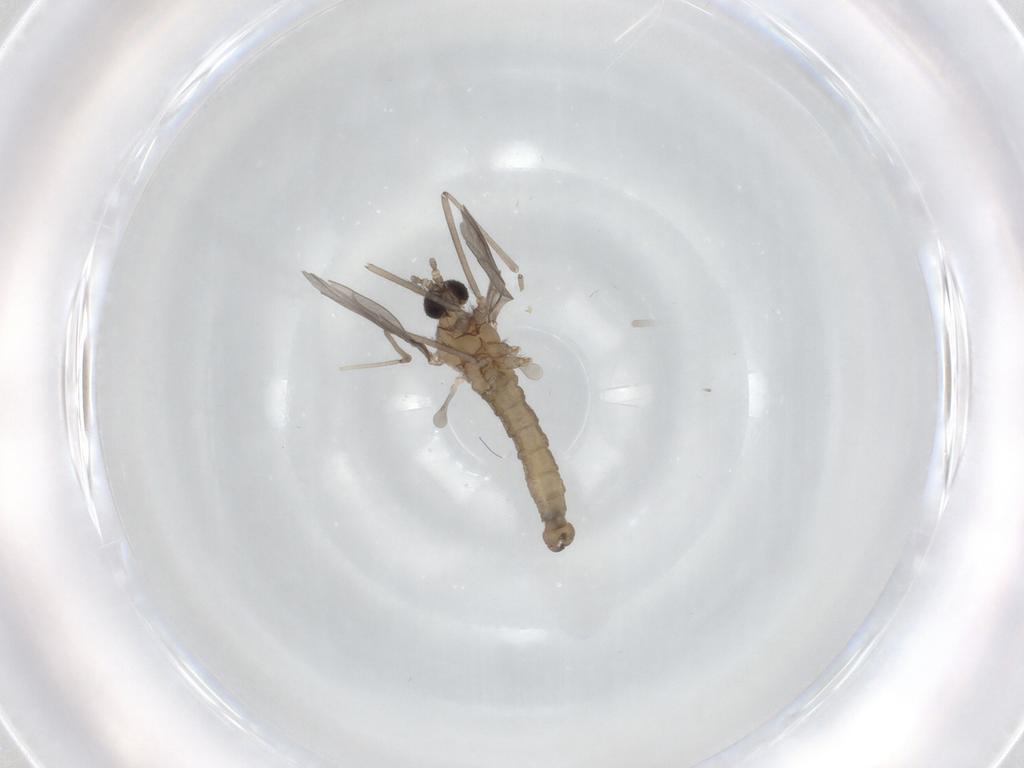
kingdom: Animalia
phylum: Arthropoda
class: Insecta
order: Diptera
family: Cecidomyiidae
